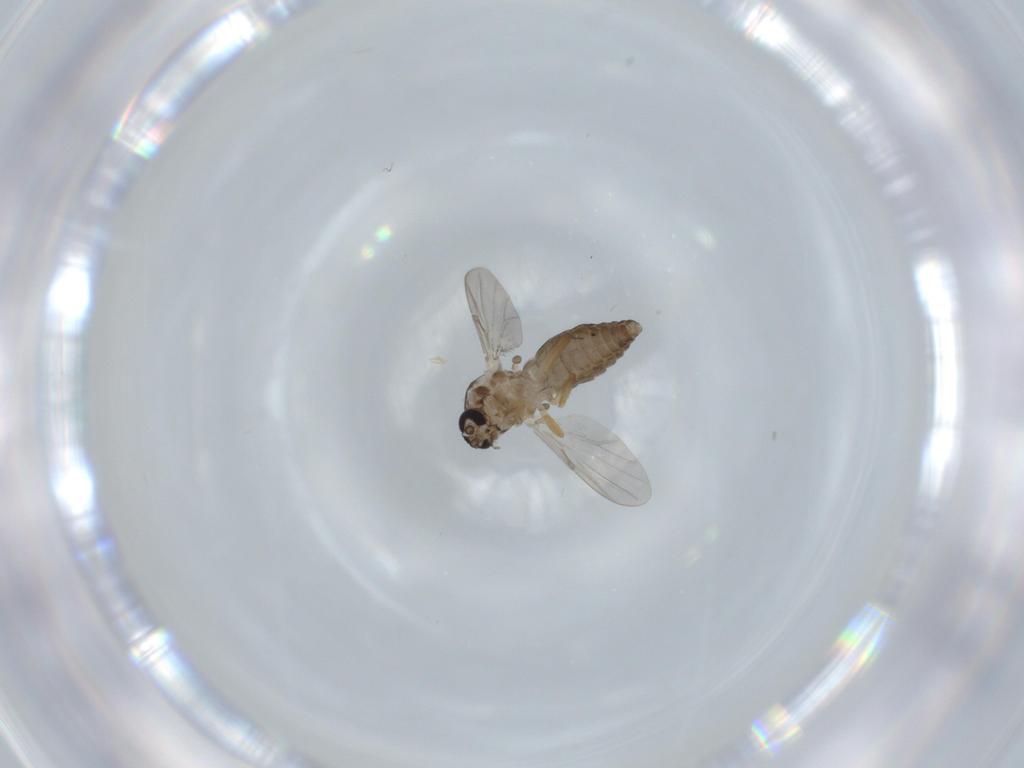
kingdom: Animalia
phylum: Arthropoda
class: Insecta
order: Diptera
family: Ceratopogonidae
